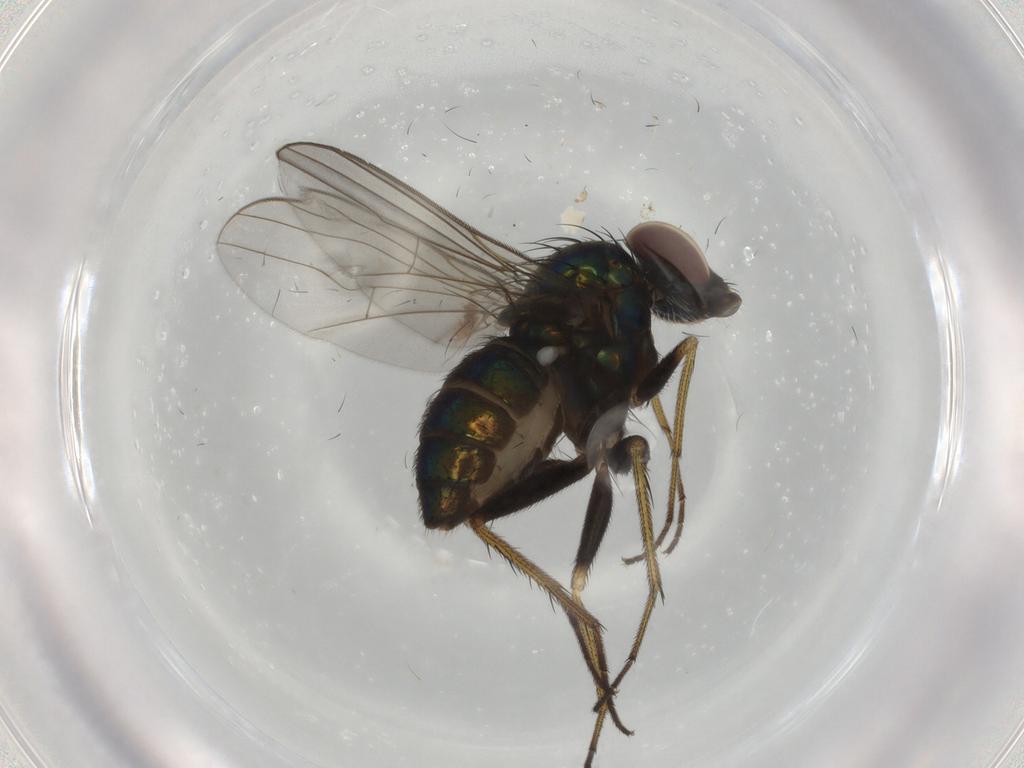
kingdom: Animalia
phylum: Arthropoda
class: Insecta
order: Diptera
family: Dolichopodidae
